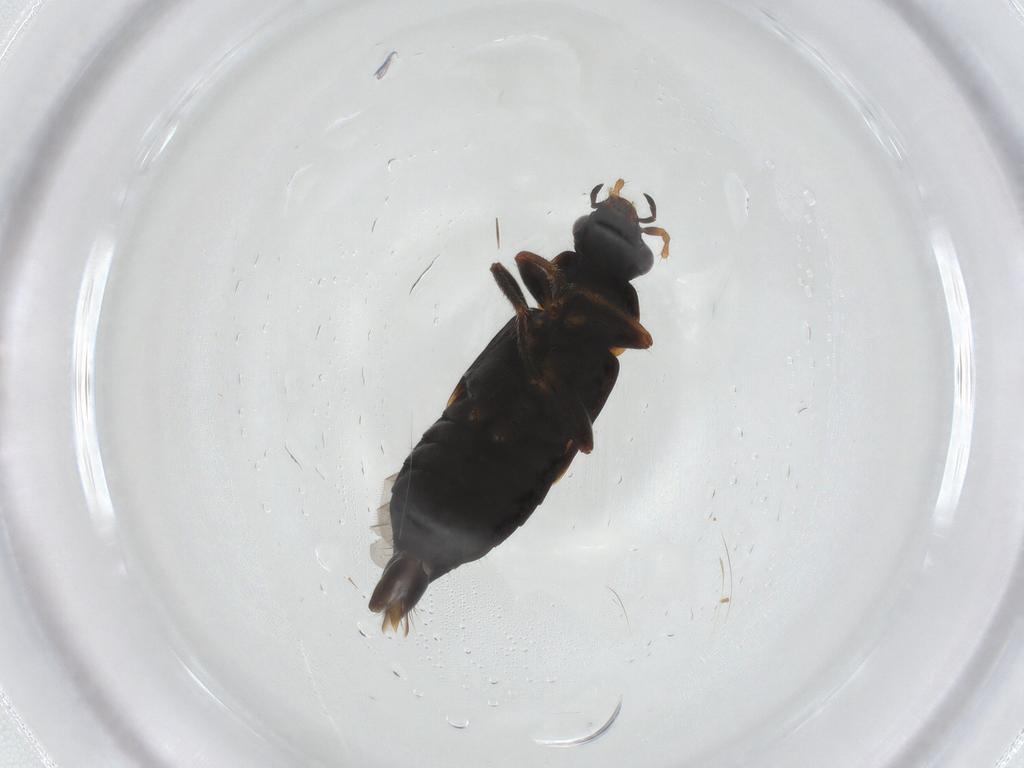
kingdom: Animalia
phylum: Arthropoda
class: Insecta
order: Coleoptera
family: Staphylinidae
